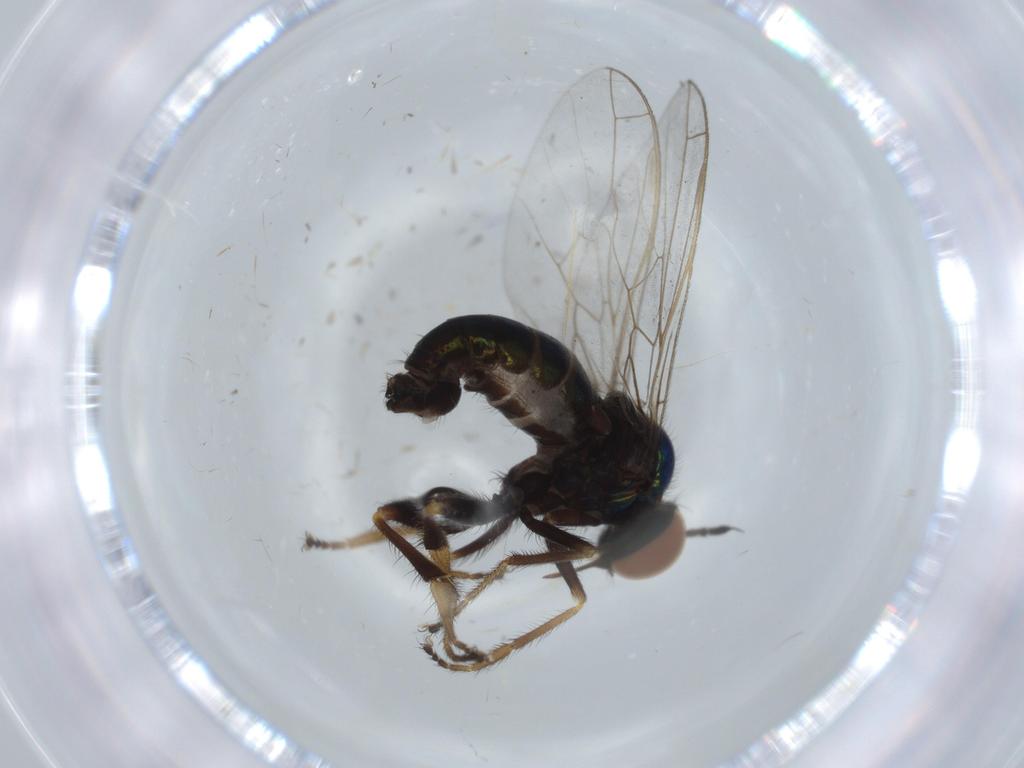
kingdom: Animalia
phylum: Arthropoda
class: Insecta
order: Diptera
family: Empididae
